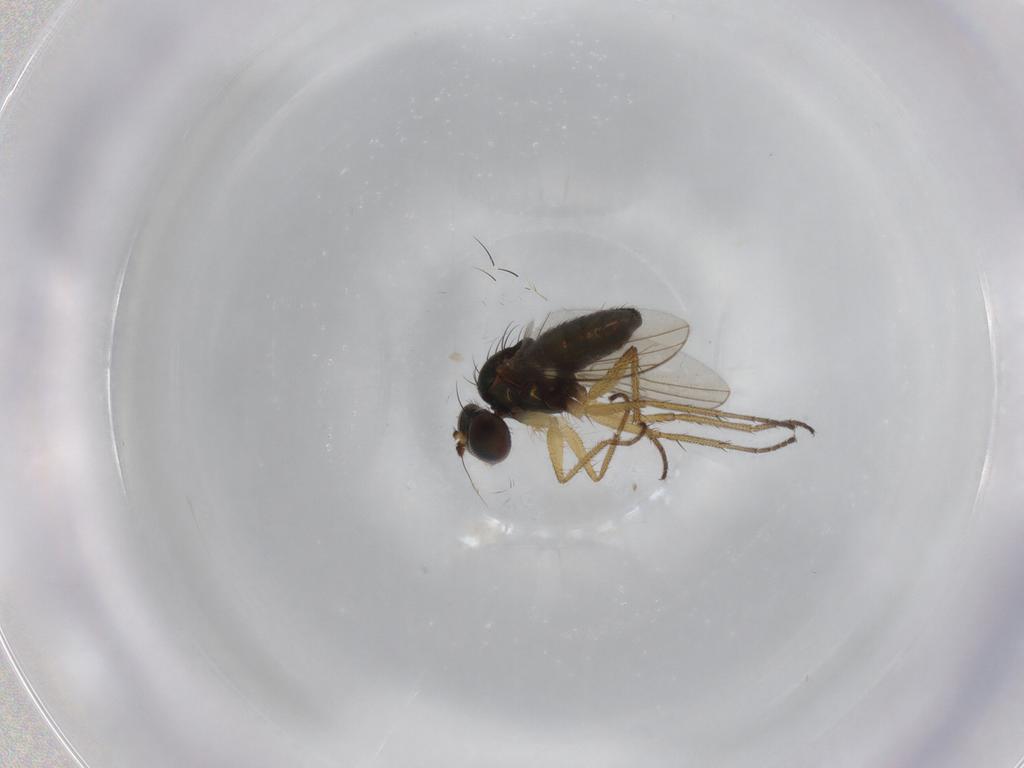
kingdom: Animalia
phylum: Arthropoda
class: Insecta
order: Diptera
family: Dolichopodidae
